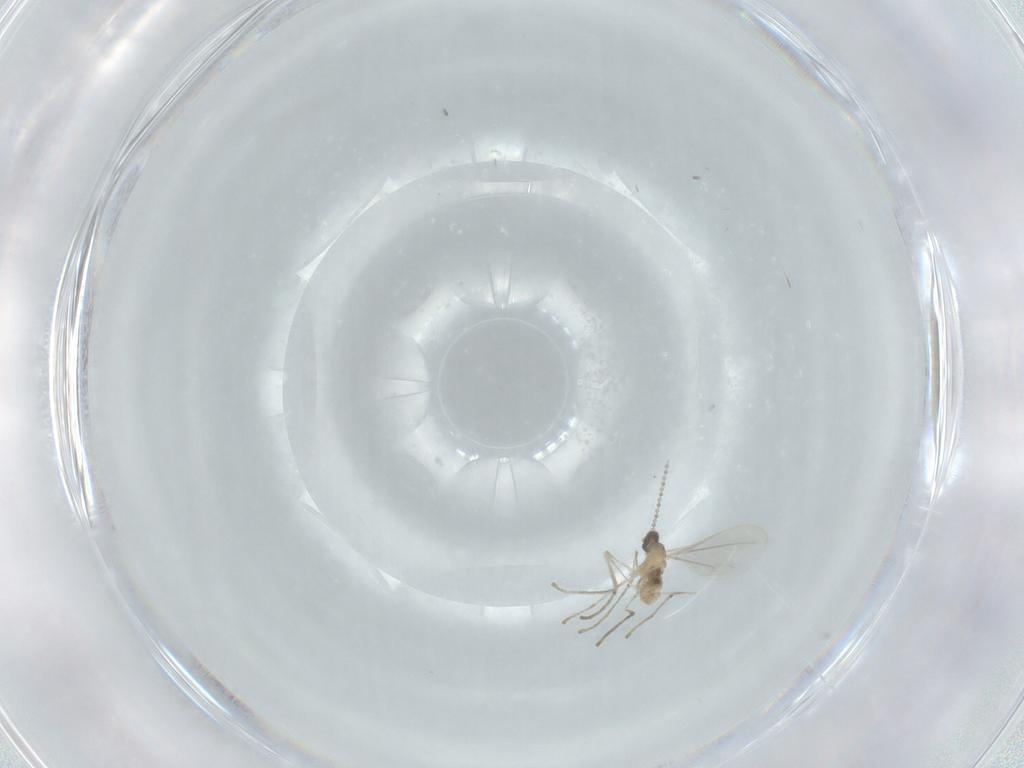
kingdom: Animalia
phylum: Arthropoda
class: Insecta
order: Diptera
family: Cecidomyiidae
